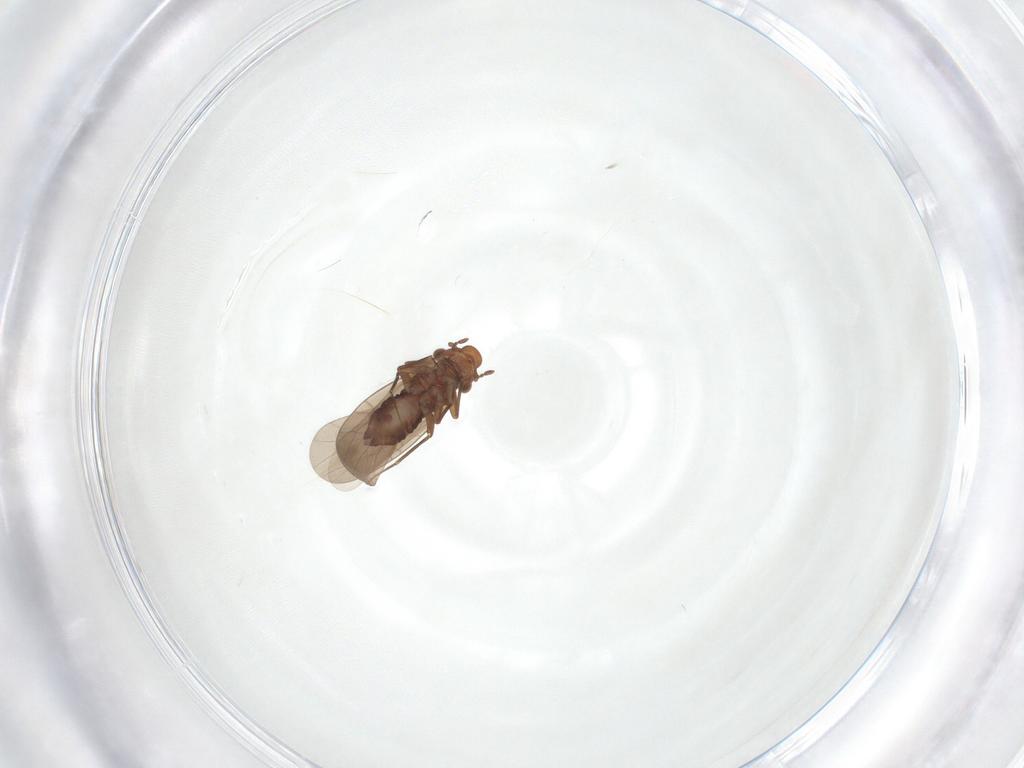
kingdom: Animalia
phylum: Arthropoda
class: Insecta
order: Psocodea
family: Lepidopsocidae
